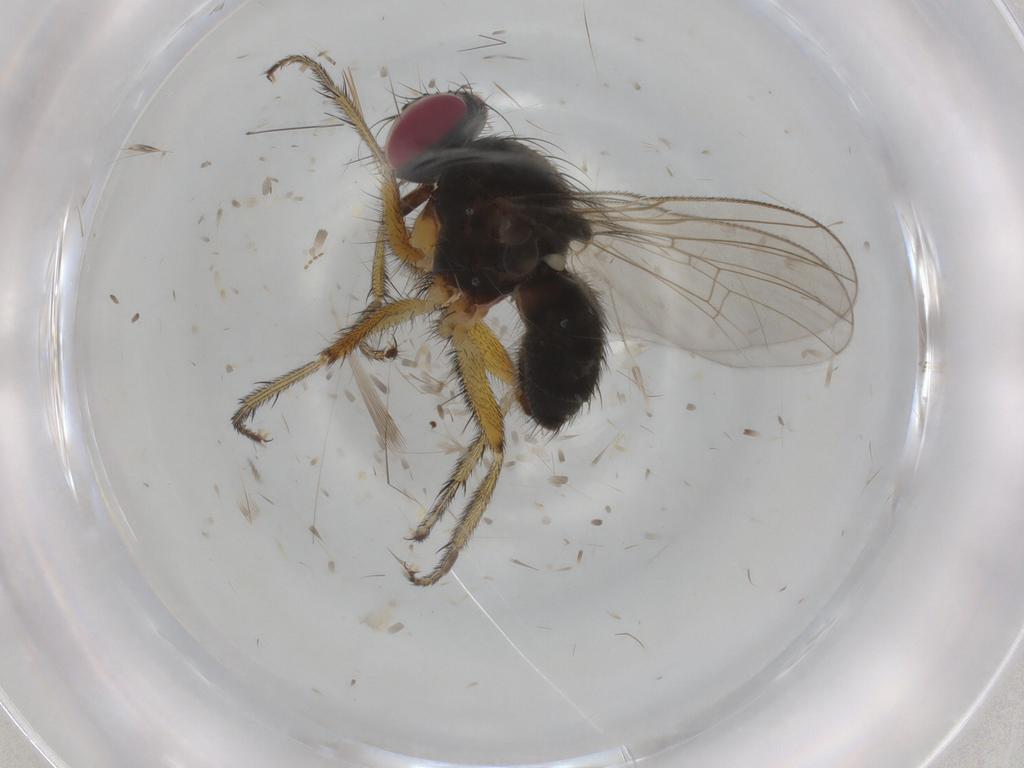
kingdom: Animalia
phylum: Arthropoda
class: Insecta
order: Diptera
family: Muscidae
